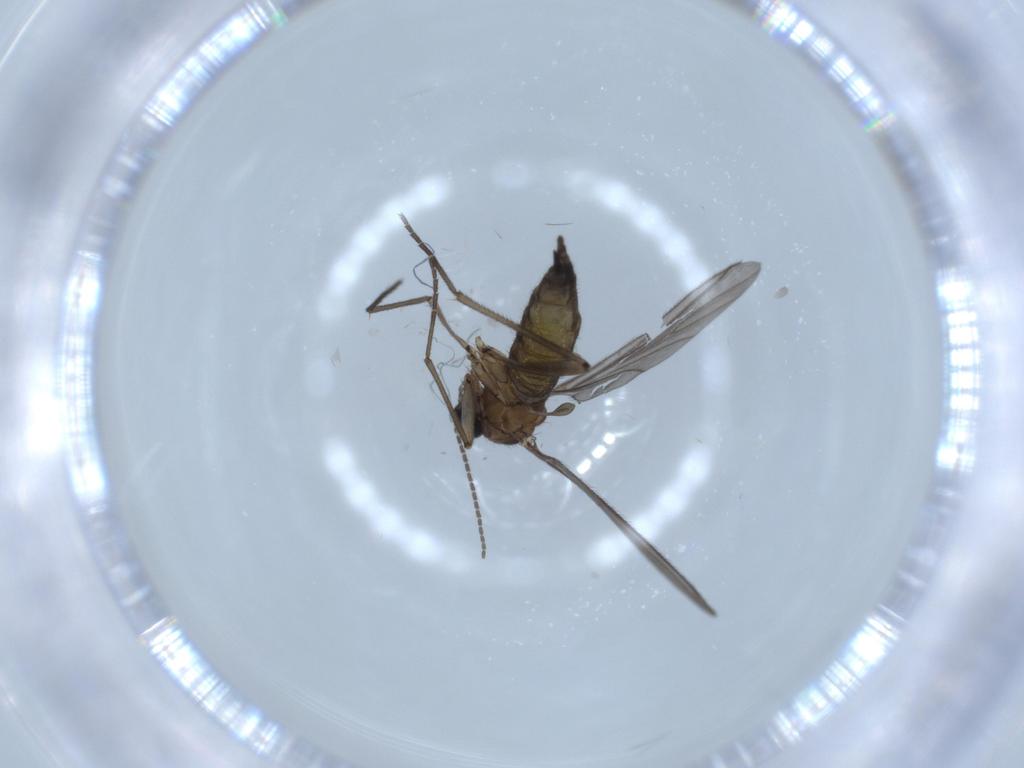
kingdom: Animalia
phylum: Arthropoda
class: Insecta
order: Diptera
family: Sciaridae
